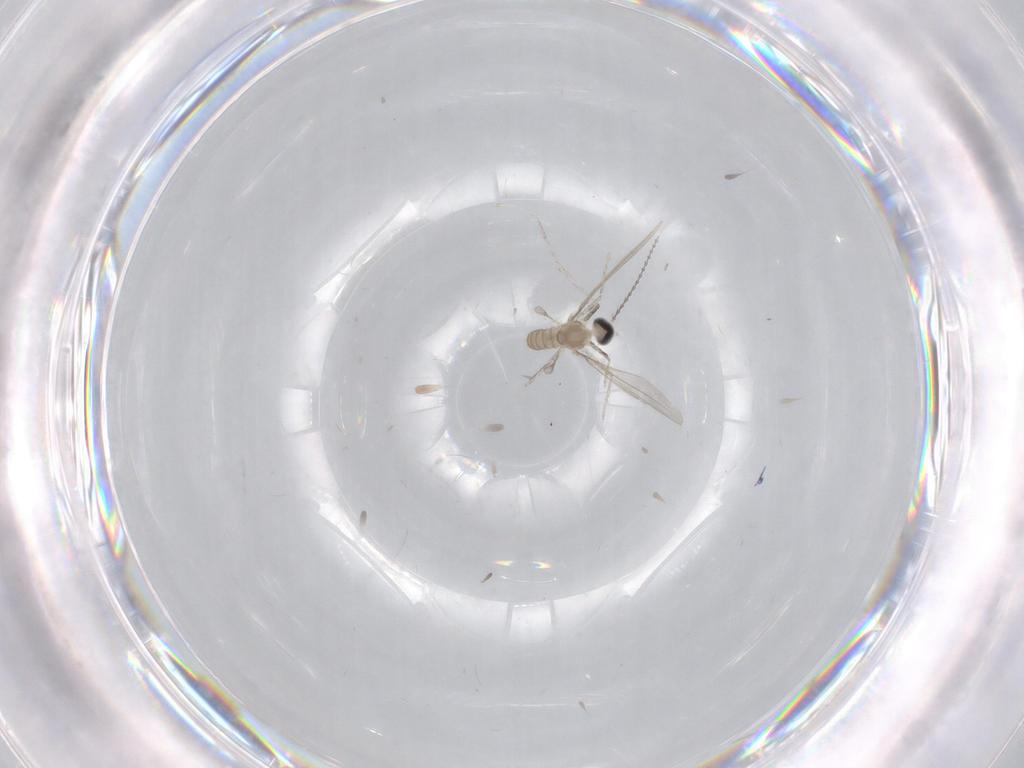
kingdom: Animalia
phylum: Arthropoda
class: Insecta
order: Diptera
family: Cecidomyiidae
